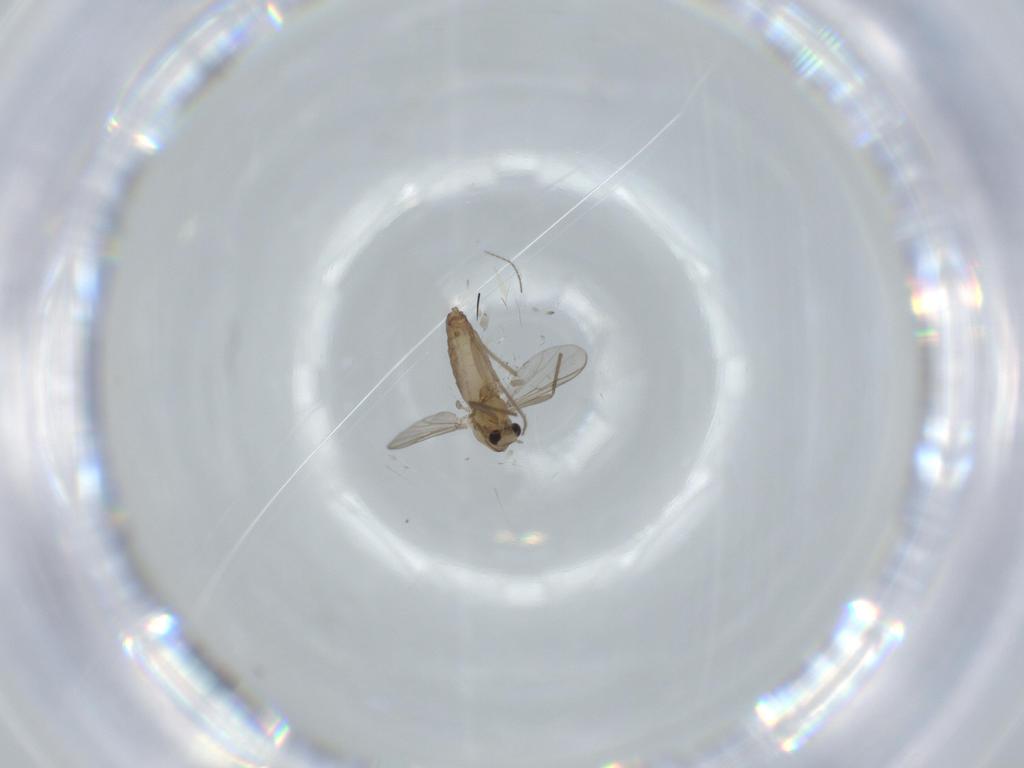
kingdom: Animalia
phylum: Arthropoda
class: Insecta
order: Diptera
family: Chironomidae
